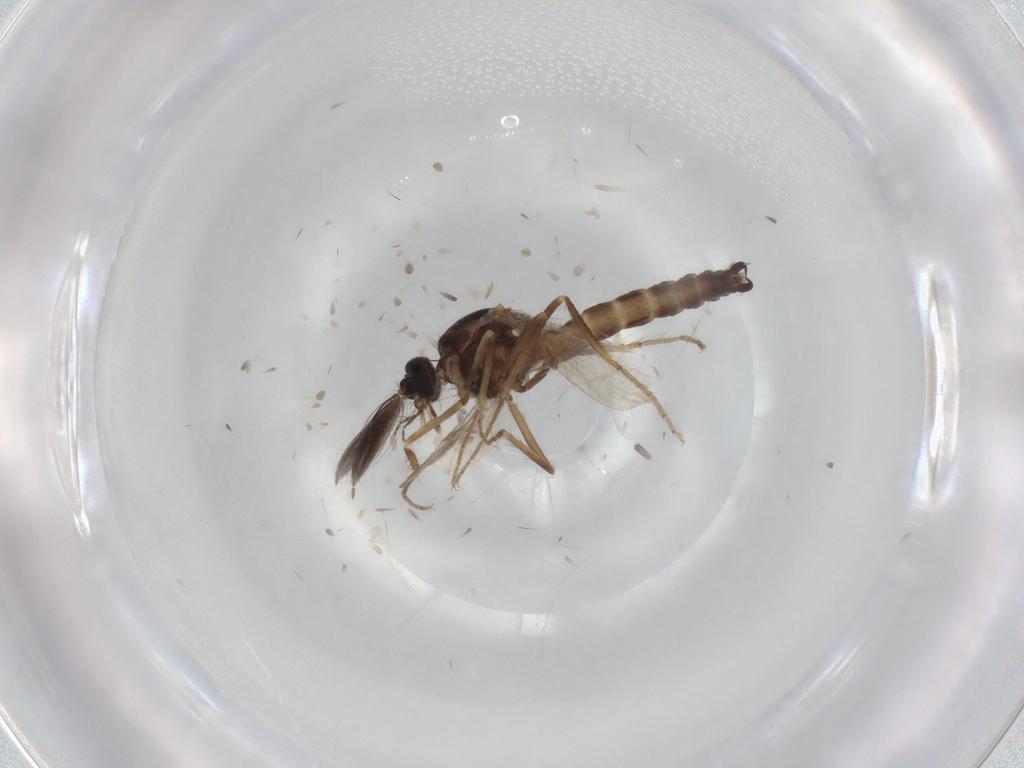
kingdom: Animalia
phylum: Arthropoda
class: Insecta
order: Diptera
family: Ceratopogonidae
